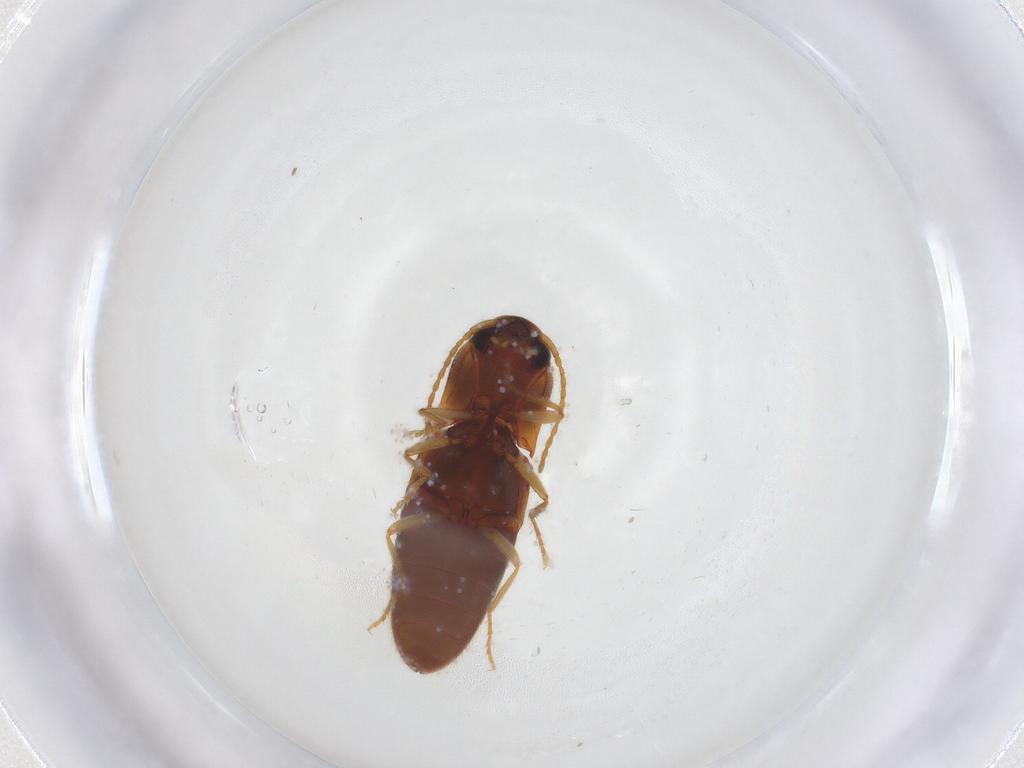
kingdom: Animalia
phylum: Arthropoda
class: Insecta
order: Coleoptera
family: Elateridae
